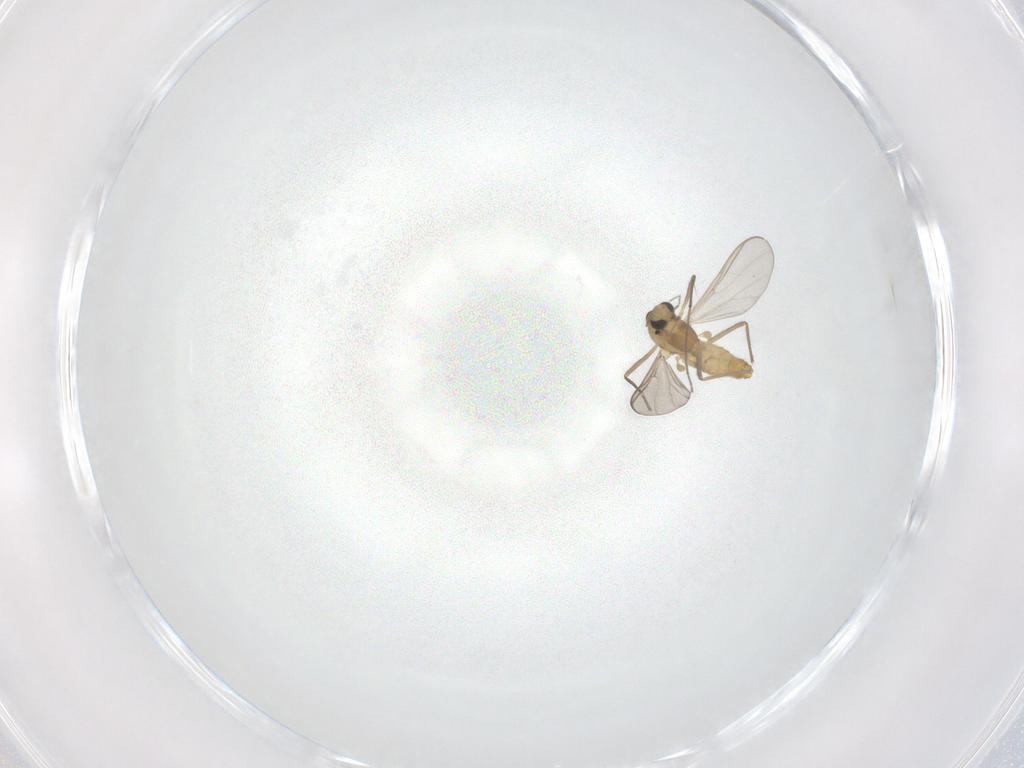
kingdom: Animalia
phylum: Arthropoda
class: Insecta
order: Diptera
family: Chironomidae
